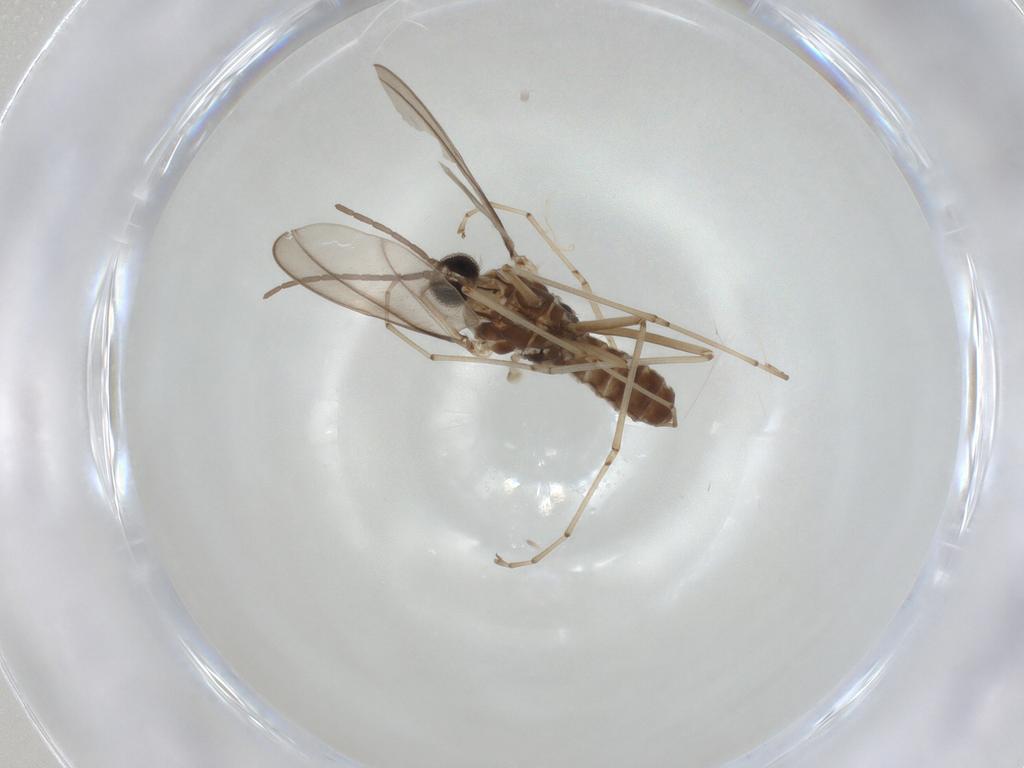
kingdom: Animalia
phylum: Arthropoda
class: Insecta
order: Diptera
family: Cecidomyiidae
